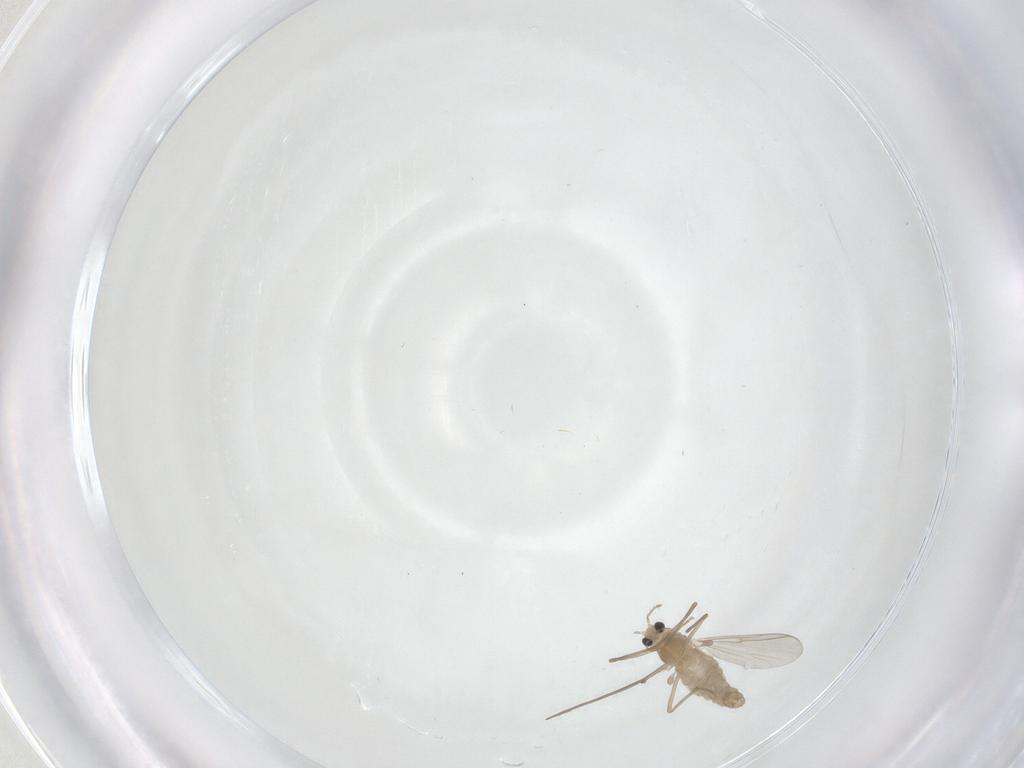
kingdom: Animalia
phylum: Arthropoda
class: Insecta
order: Diptera
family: Chironomidae
